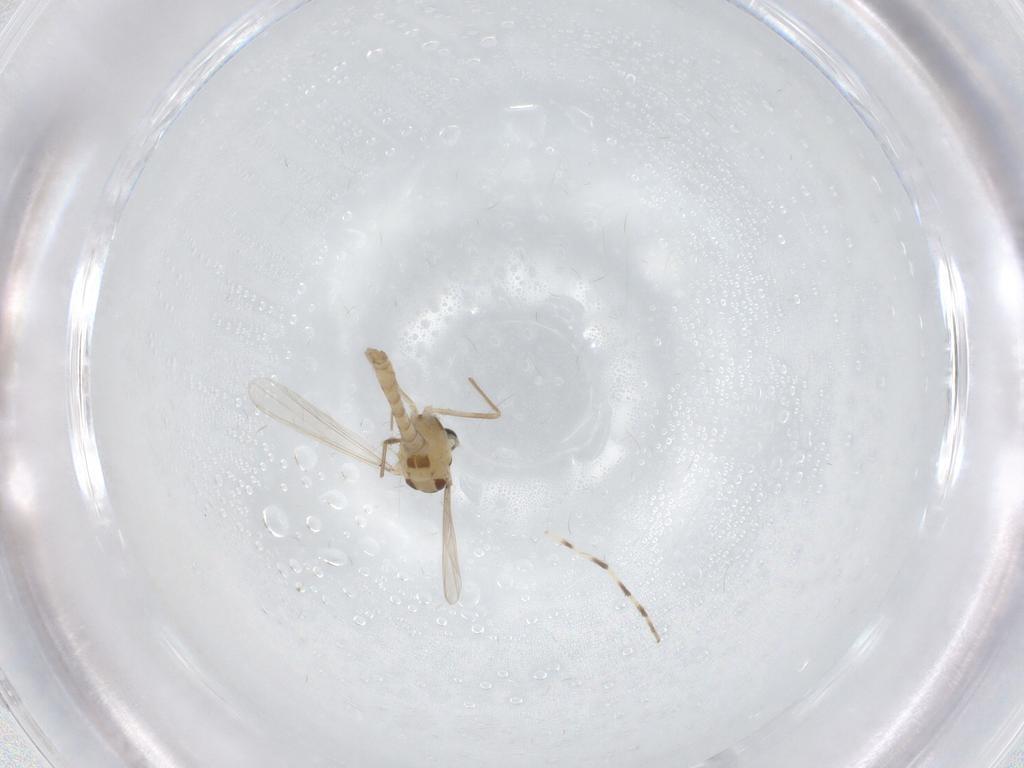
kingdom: Animalia
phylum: Arthropoda
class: Insecta
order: Diptera
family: Chironomidae
